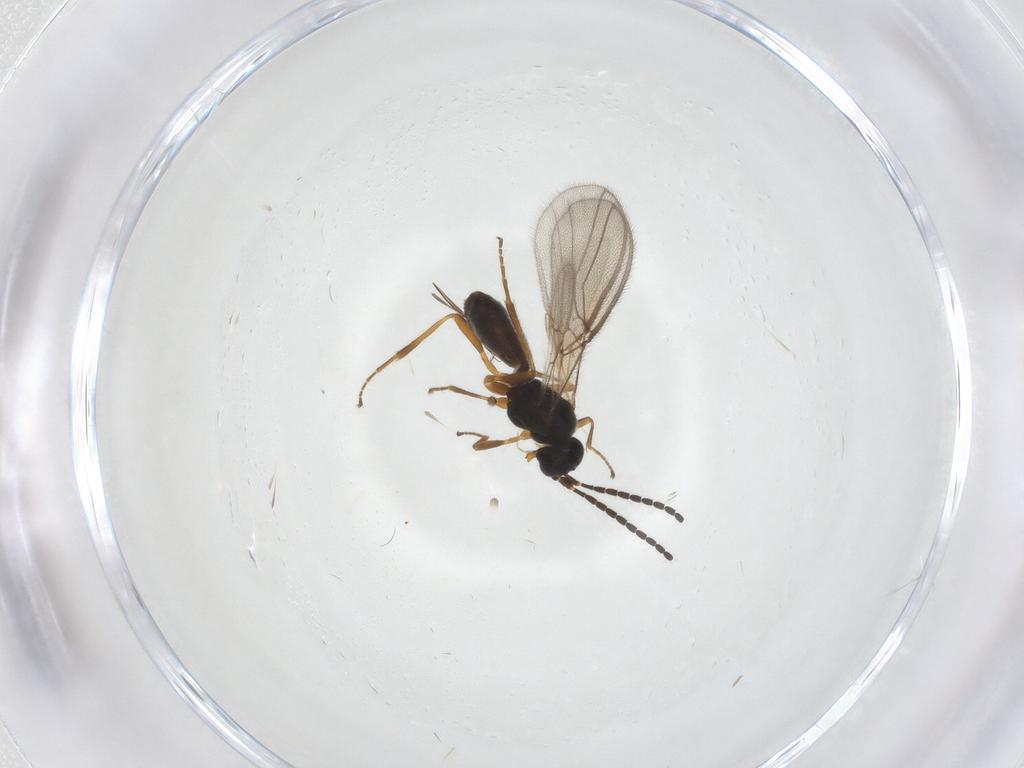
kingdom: Animalia
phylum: Arthropoda
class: Insecta
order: Hymenoptera
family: Braconidae
